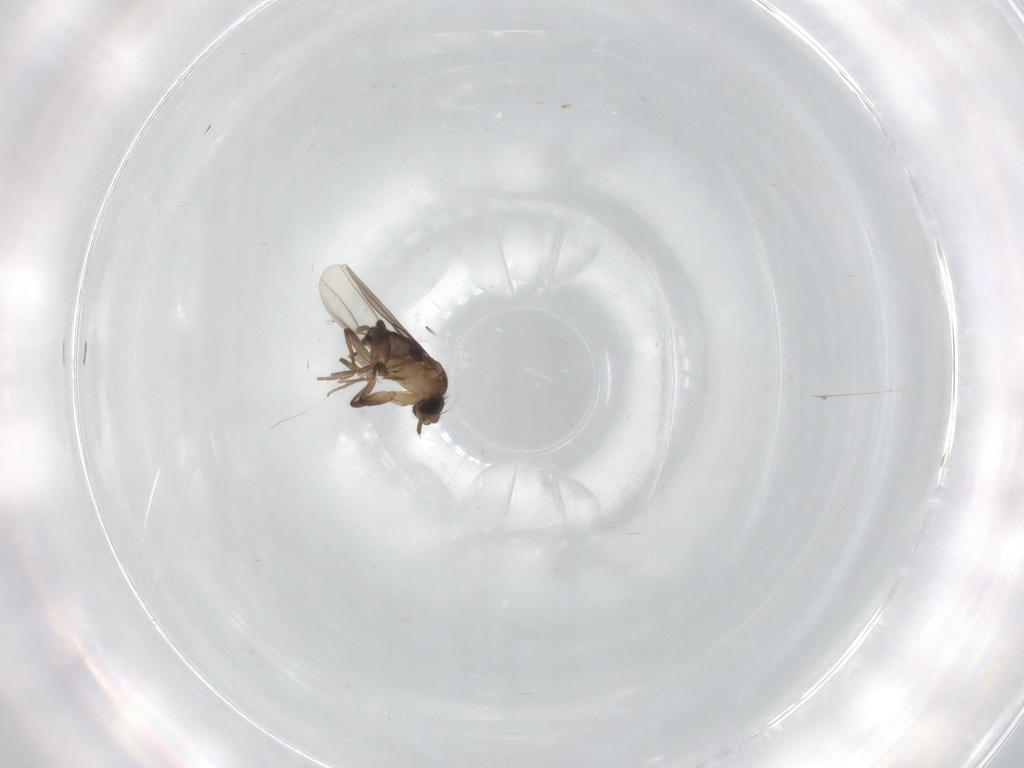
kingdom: Animalia
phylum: Arthropoda
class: Insecta
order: Diptera
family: Phoridae
